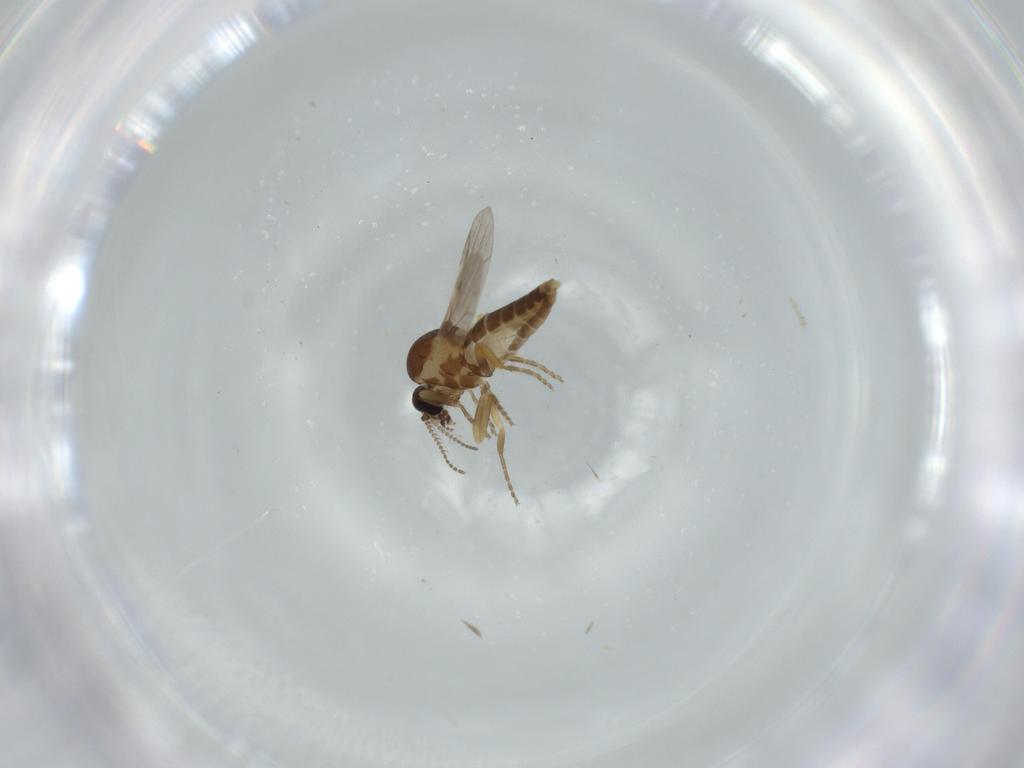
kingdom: Animalia
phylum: Arthropoda
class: Insecta
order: Diptera
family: Ceratopogonidae
